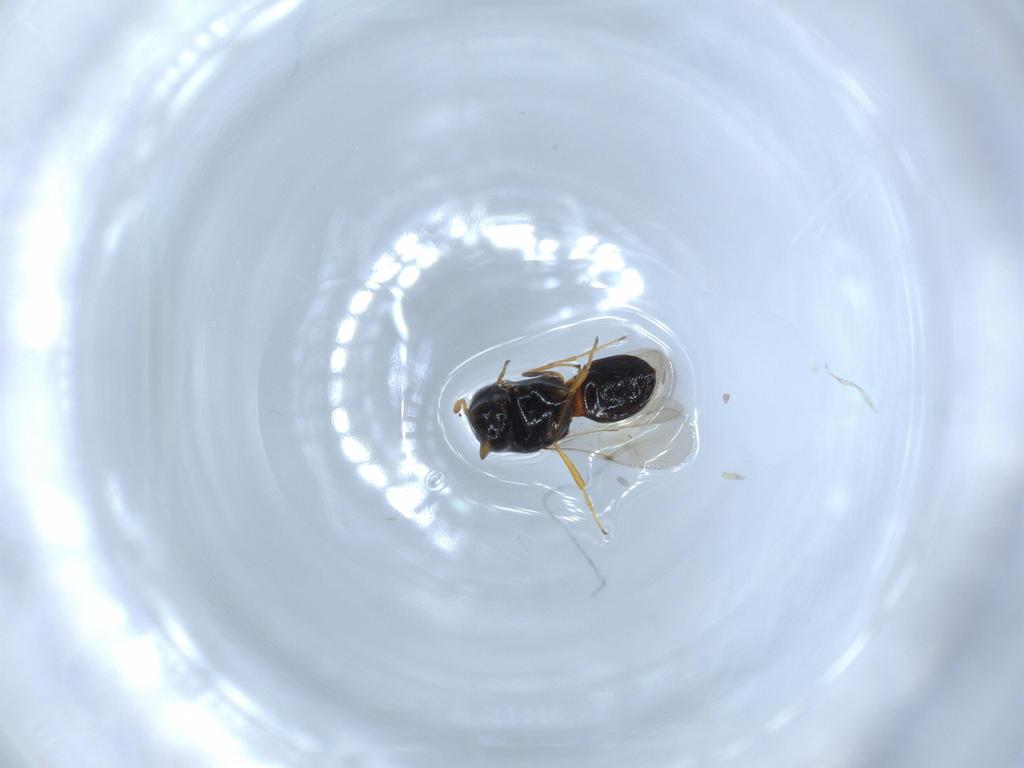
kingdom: Animalia
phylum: Arthropoda
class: Insecta
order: Hymenoptera
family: Scelionidae
